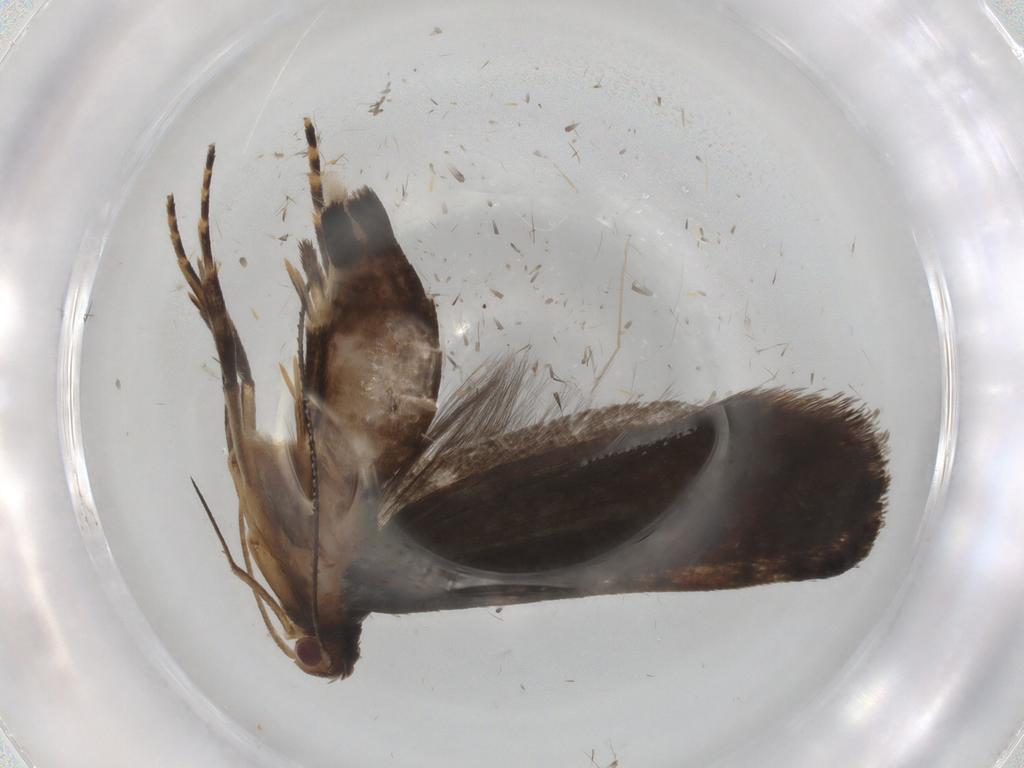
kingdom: Animalia
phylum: Arthropoda
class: Insecta
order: Lepidoptera
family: Gelechiidae
